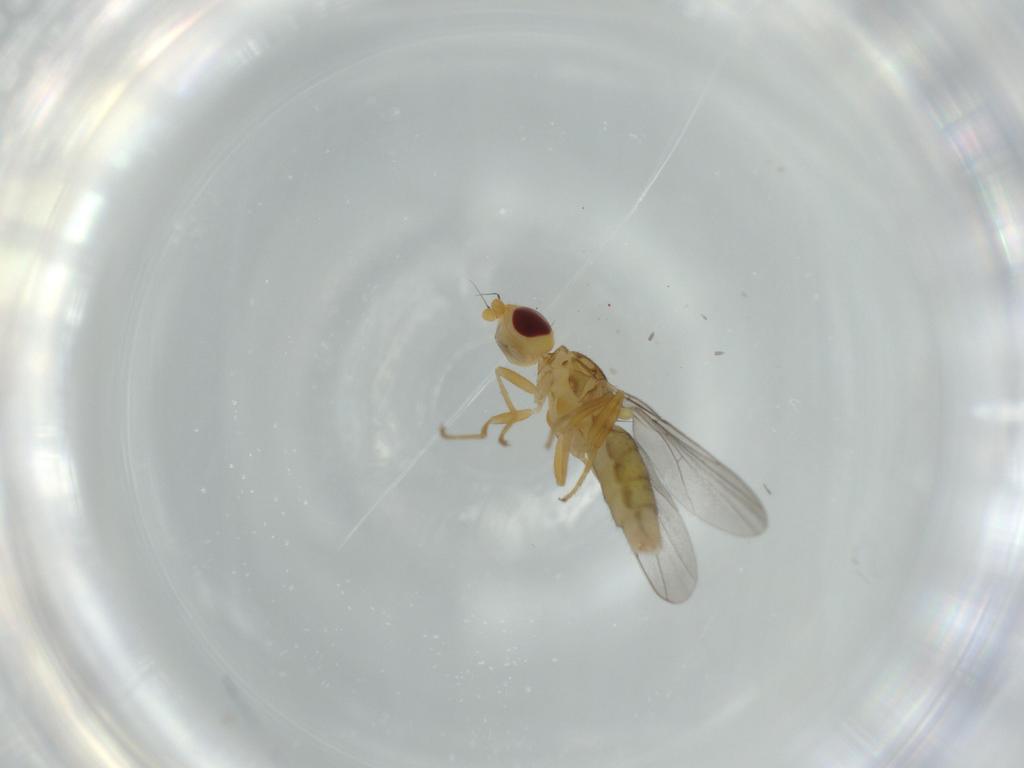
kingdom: Animalia
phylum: Arthropoda
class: Insecta
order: Diptera
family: Chloropidae
